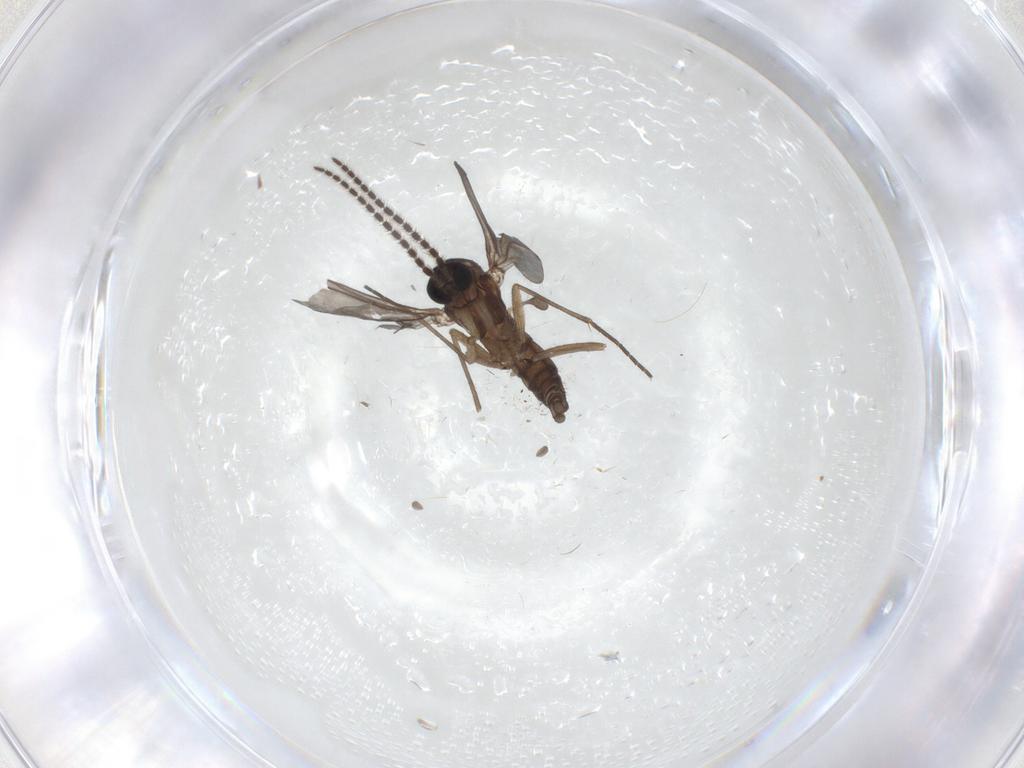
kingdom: Animalia
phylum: Arthropoda
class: Insecta
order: Diptera
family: Sciaridae
